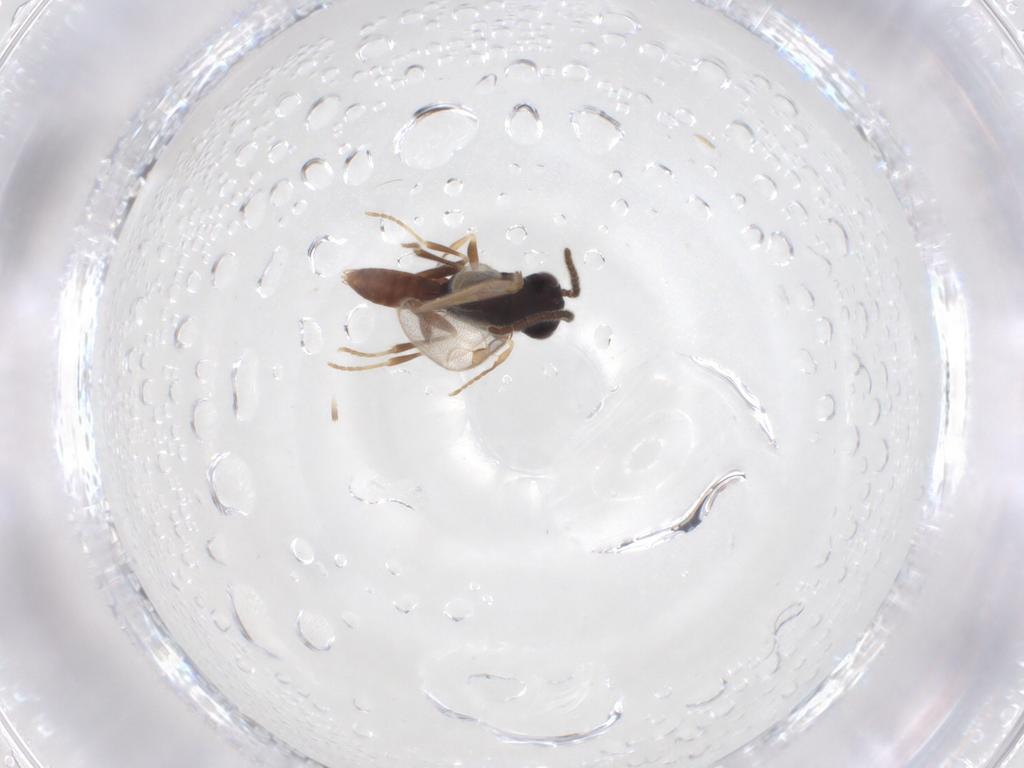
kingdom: Animalia
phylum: Arthropoda
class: Insecta
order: Hymenoptera
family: Dryinidae
